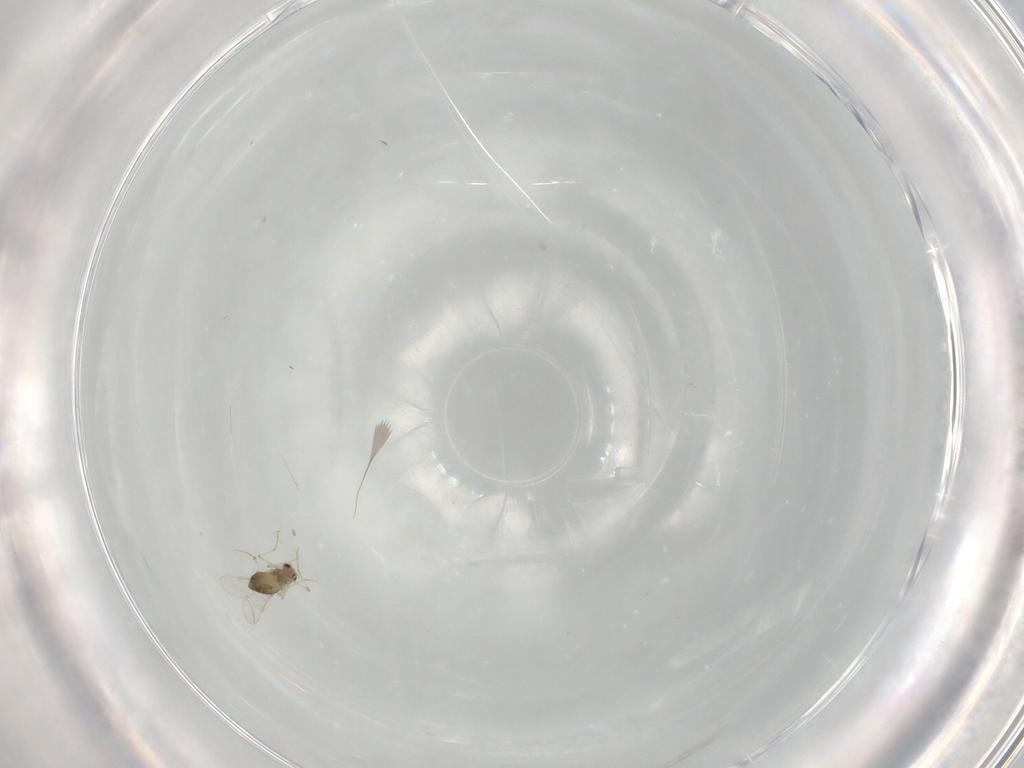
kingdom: Animalia
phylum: Arthropoda
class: Insecta
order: Diptera
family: Chironomidae
